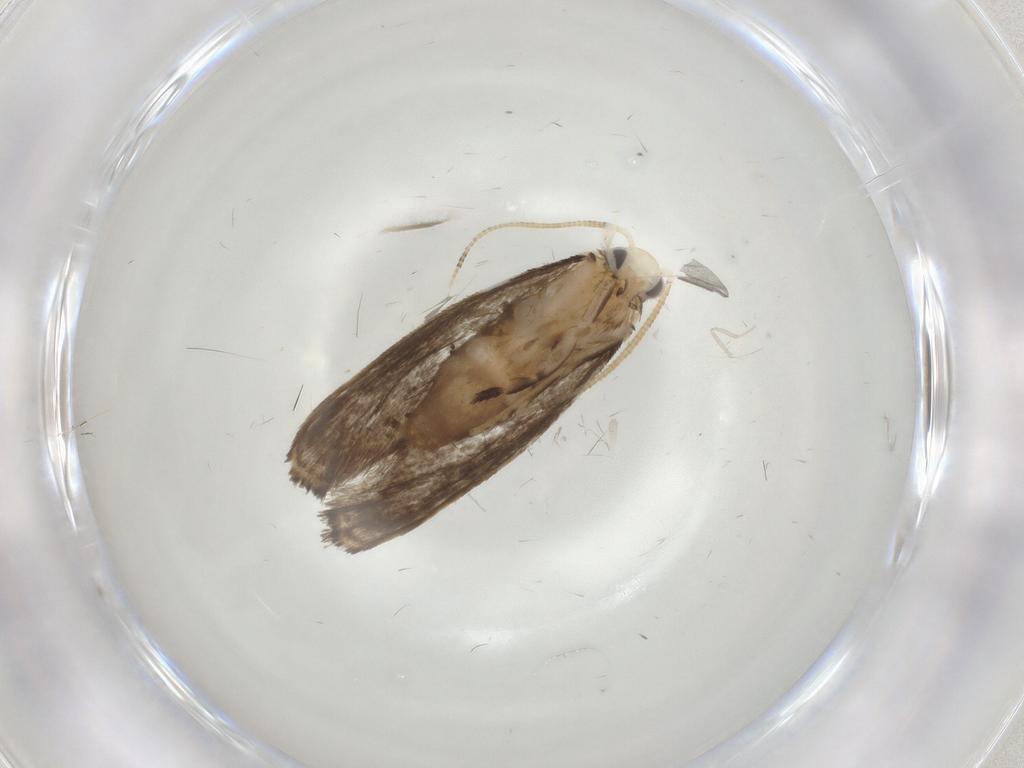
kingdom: Animalia
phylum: Arthropoda
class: Insecta
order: Lepidoptera
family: Dryadaulidae
